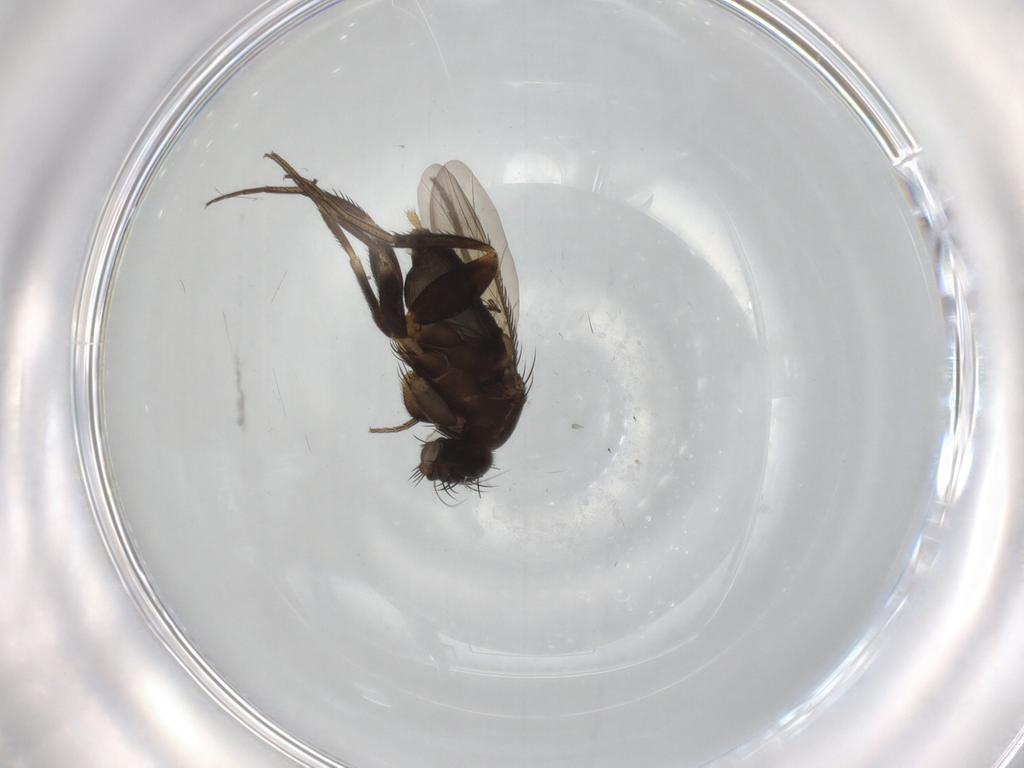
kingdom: Animalia
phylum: Arthropoda
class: Insecta
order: Diptera
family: Phoridae
